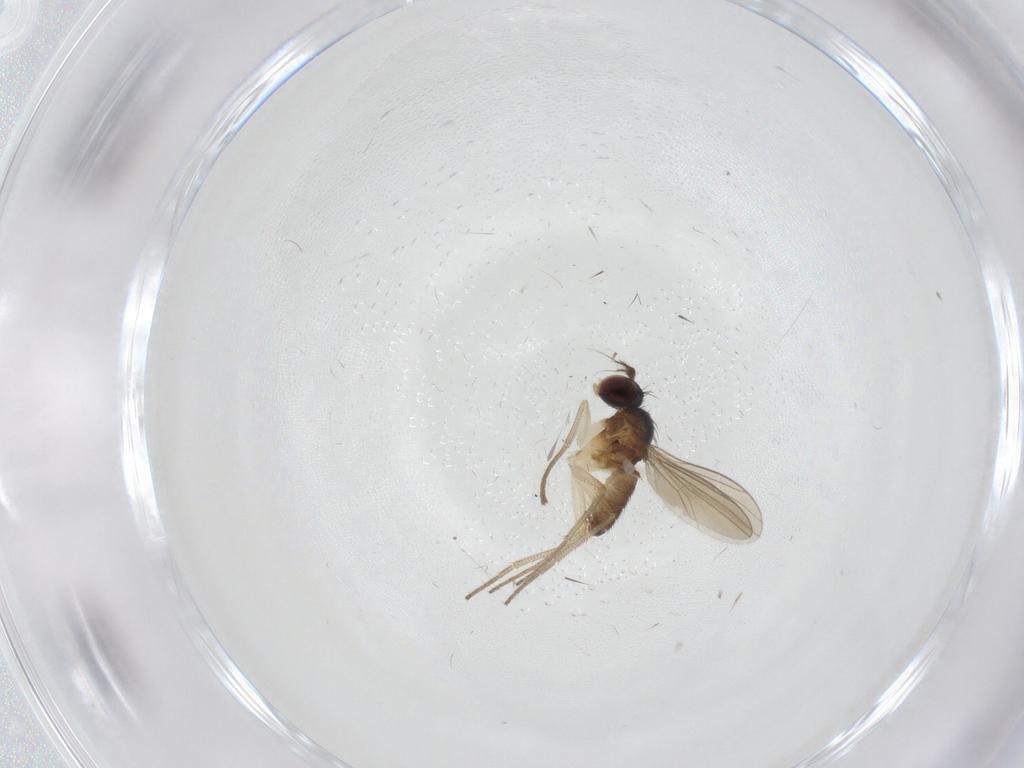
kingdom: Animalia
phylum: Arthropoda
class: Insecta
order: Diptera
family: Dolichopodidae
